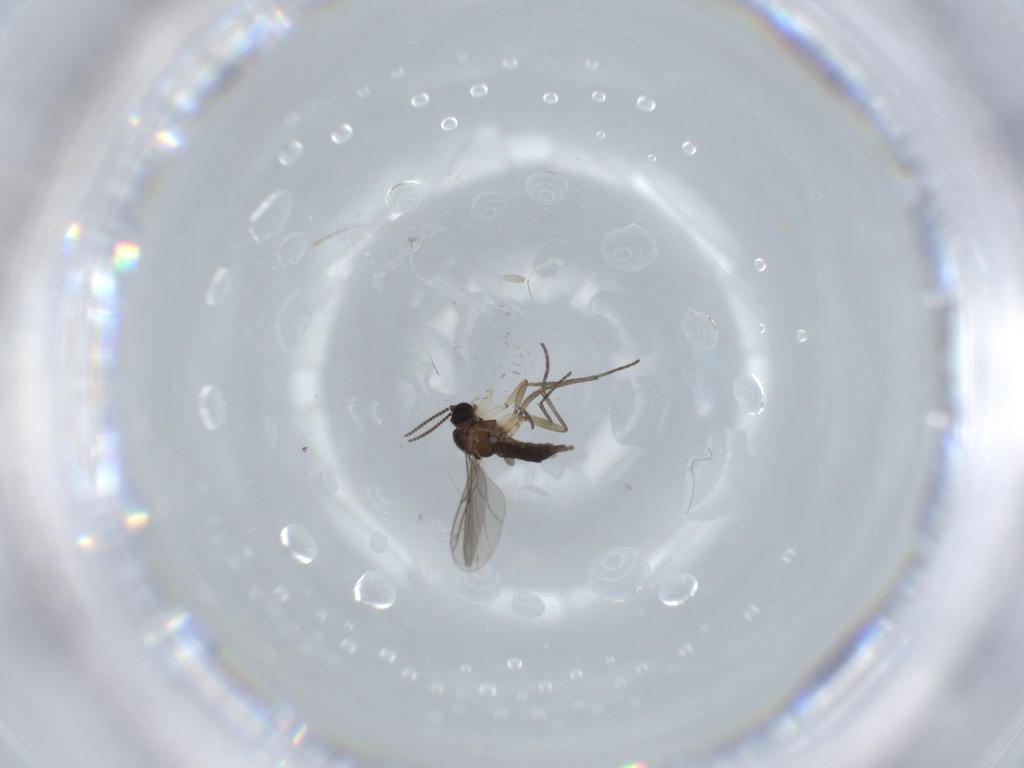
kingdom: Animalia
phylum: Arthropoda
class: Insecta
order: Diptera
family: Sciaridae
